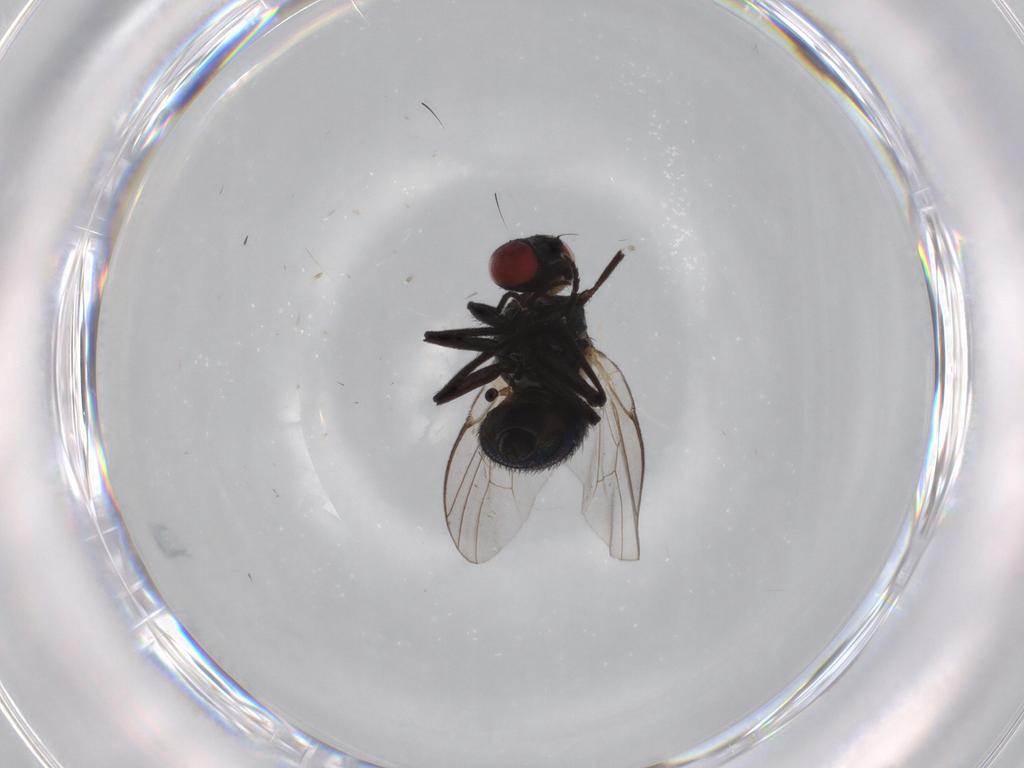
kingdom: Animalia
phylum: Arthropoda
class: Insecta
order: Diptera
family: Agromyzidae
